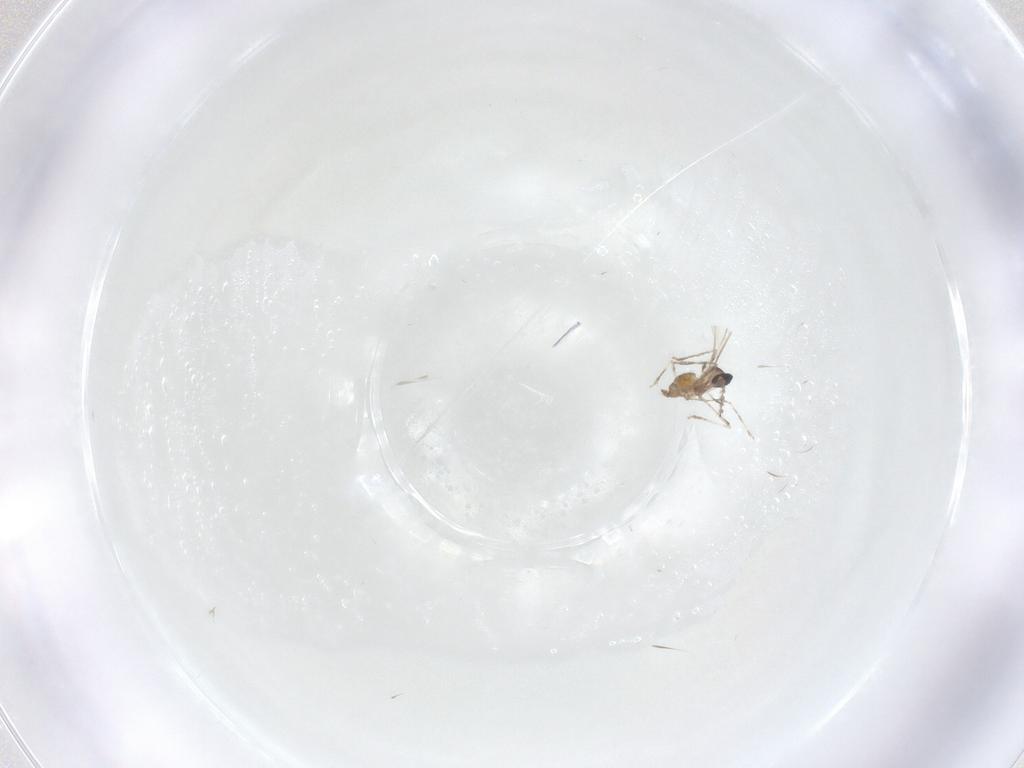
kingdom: Animalia
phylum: Arthropoda
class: Insecta
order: Diptera
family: Cecidomyiidae
